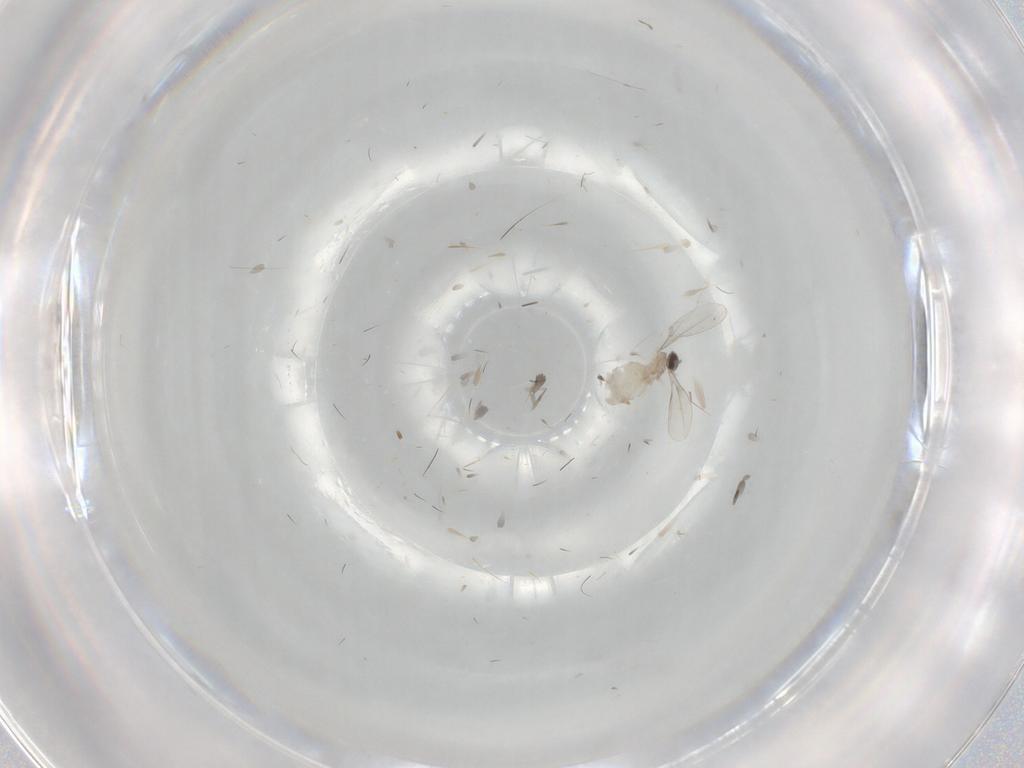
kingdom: Animalia
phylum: Arthropoda
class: Insecta
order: Diptera
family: Cecidomyiidae
